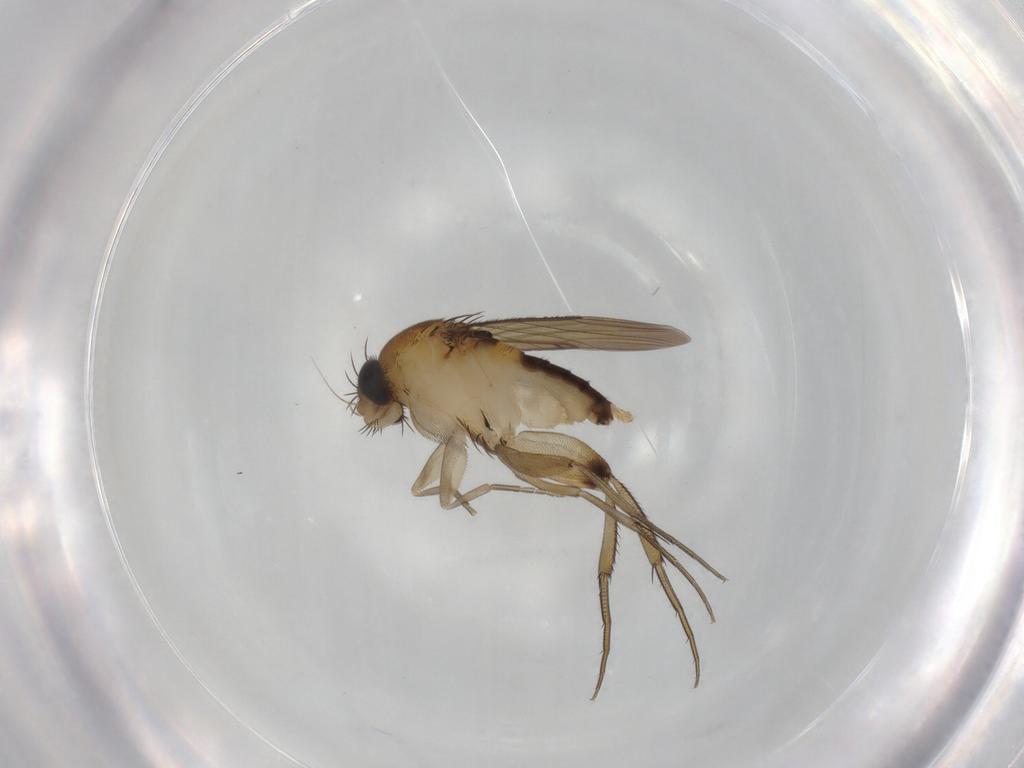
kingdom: Animalia
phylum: Arthropoda
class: Insecta
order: Diptera
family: Phoridae
